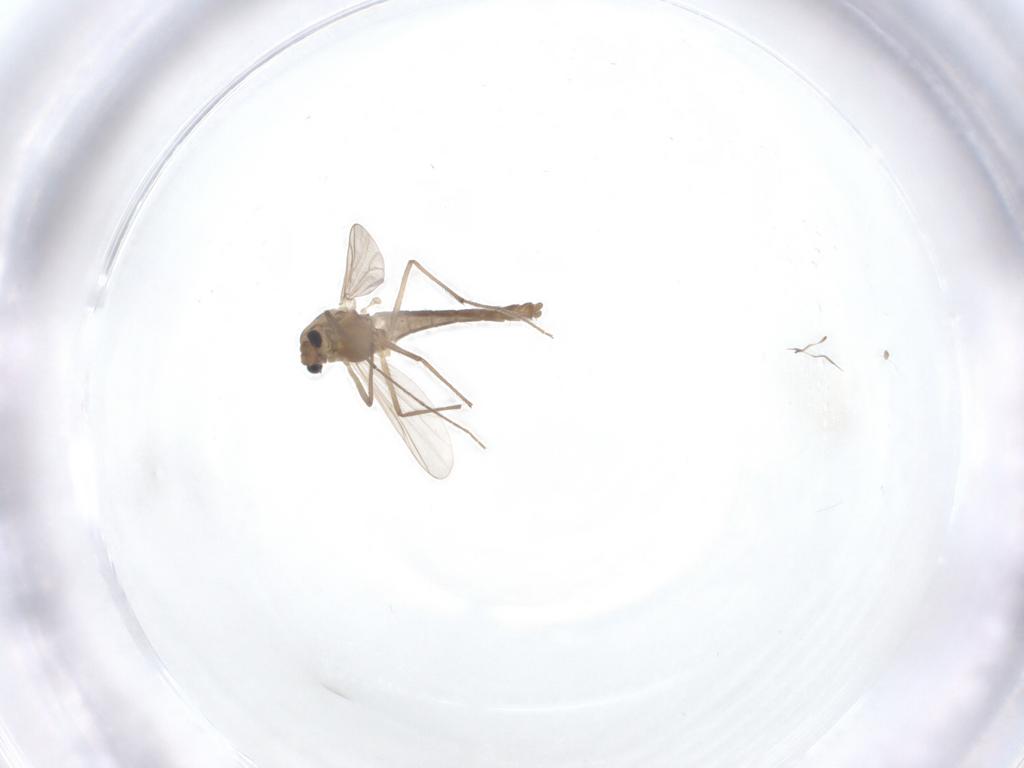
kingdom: Animalia
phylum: Arthropoda
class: Insecta
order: Diptera
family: Chironomidae
